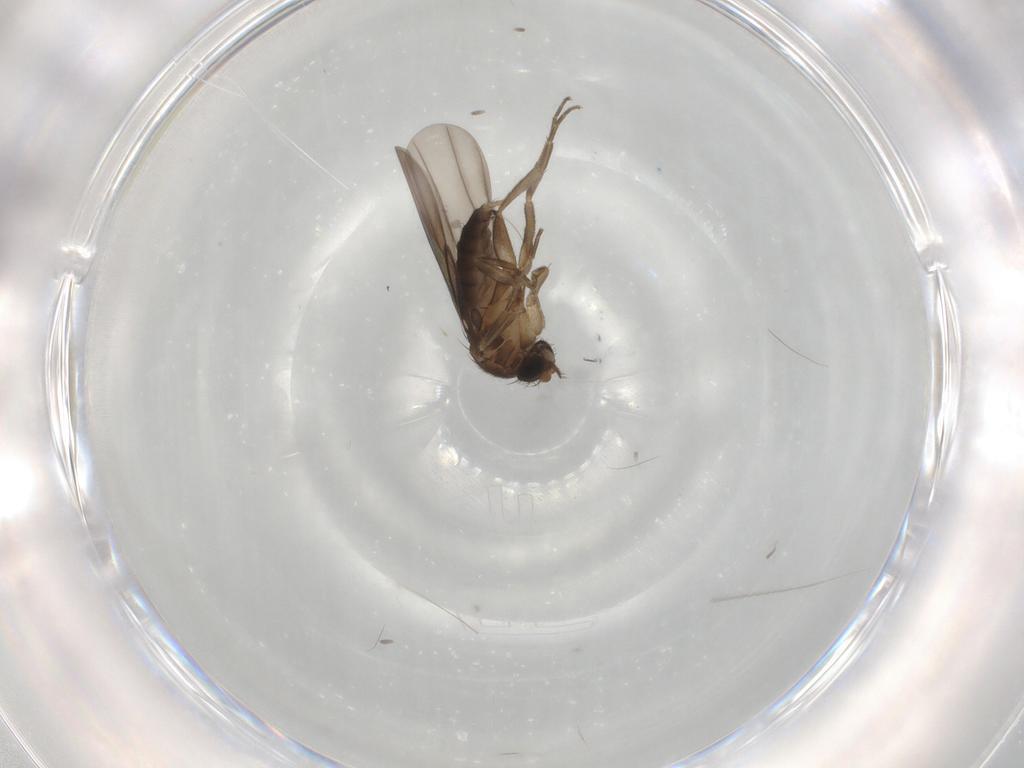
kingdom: Animalia
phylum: Arthropoda
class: Insecta
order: Diptera
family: Phoridae
